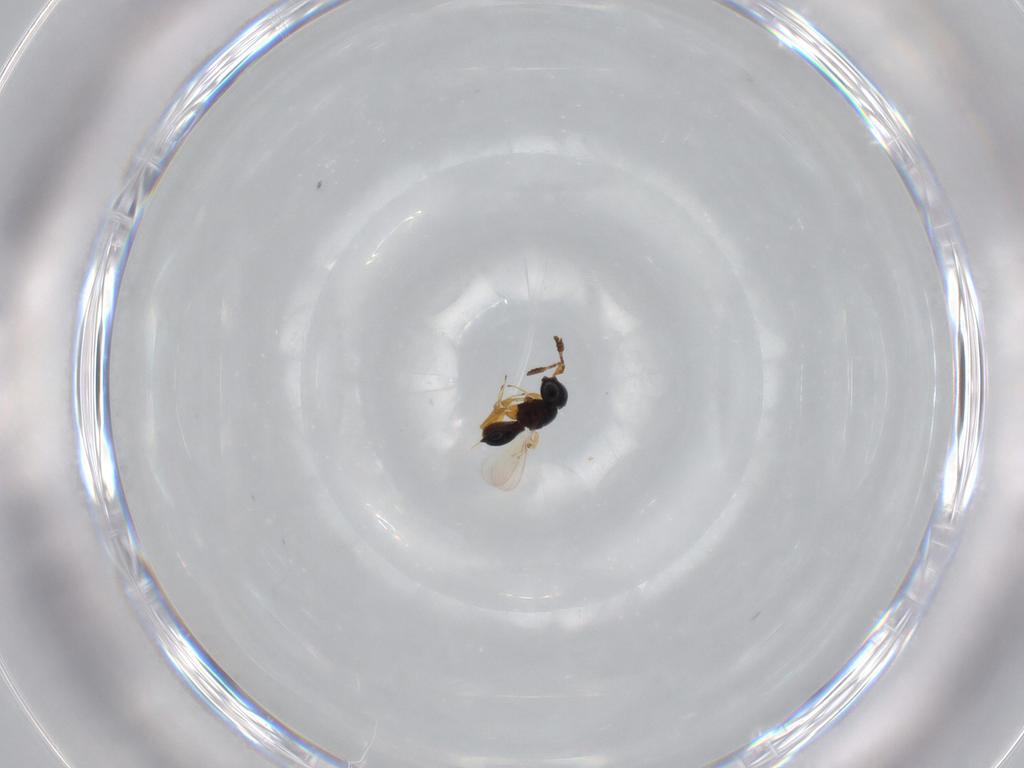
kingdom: Animalia
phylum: Arthropoda
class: Insecta
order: Hymenoptera
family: Scelionidae
